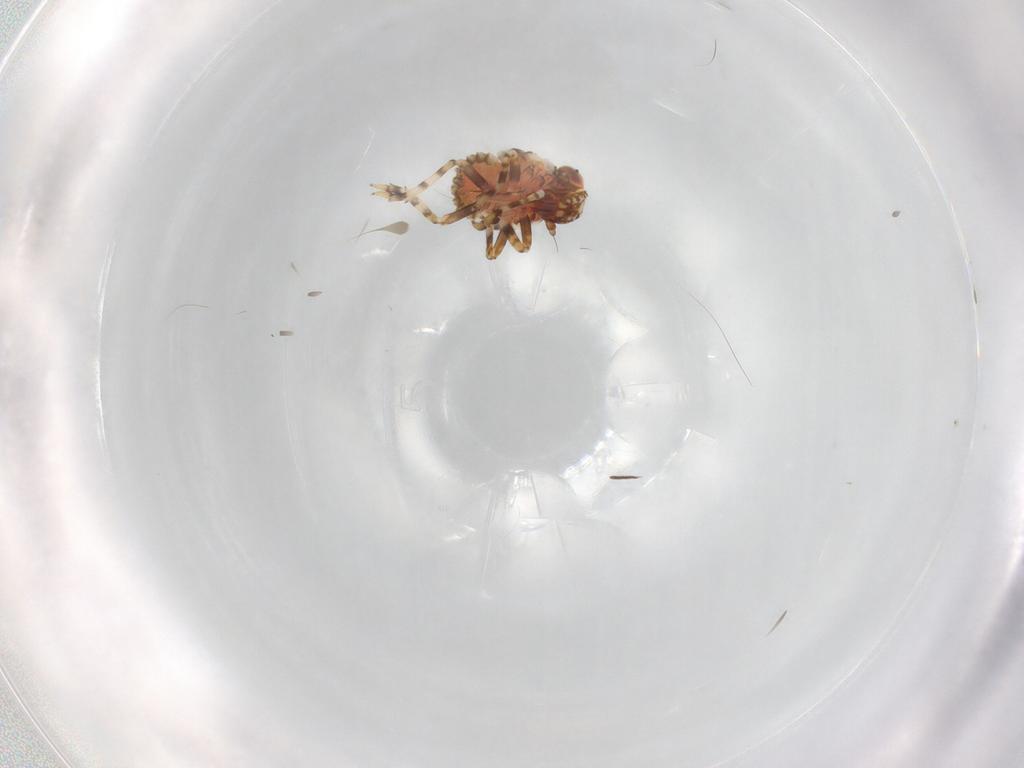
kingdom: Animalia
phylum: Arthropoda
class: Insecta
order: Hemiptera
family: Fulgoroidea_incertae_sedis
